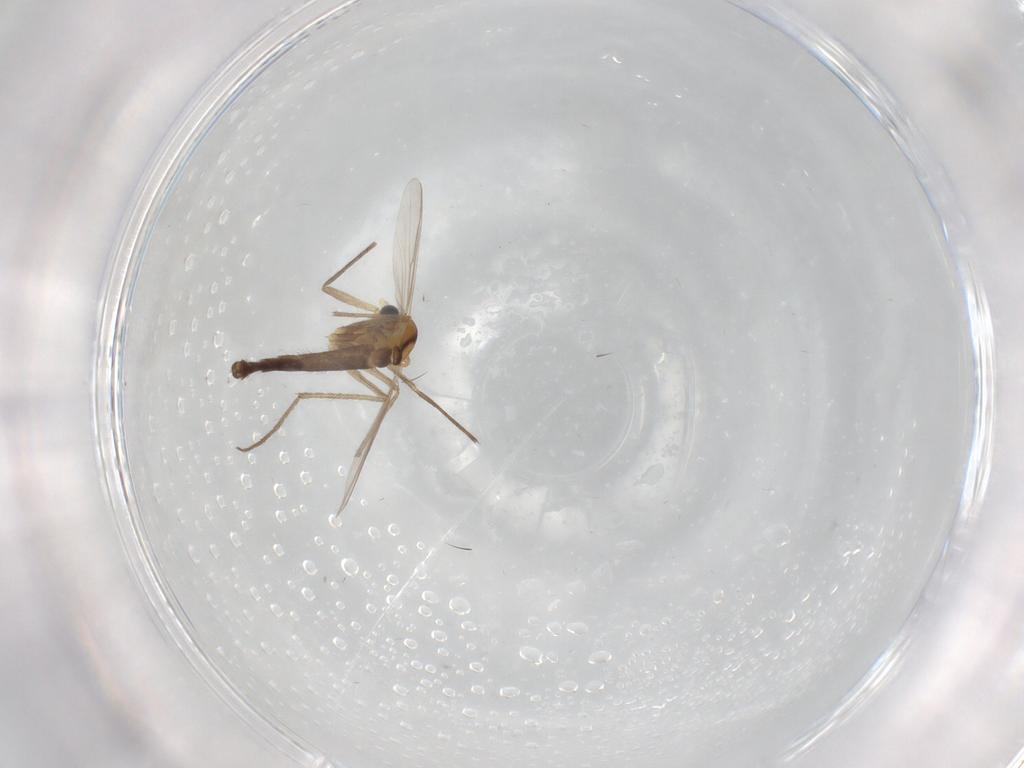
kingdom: Animalia
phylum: Arthropoda
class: Insecta
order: Diptera
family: Chironomidae
